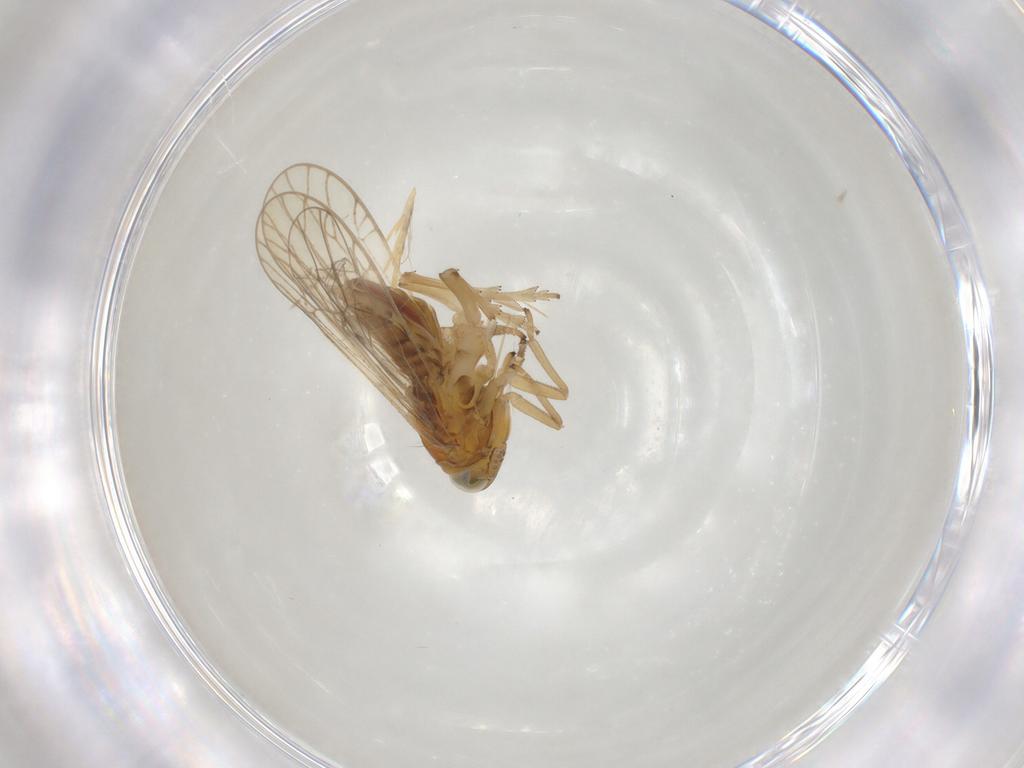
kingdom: Animalia
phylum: Arthropoda
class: Insecta
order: Hemiptera
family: Delphacidae
